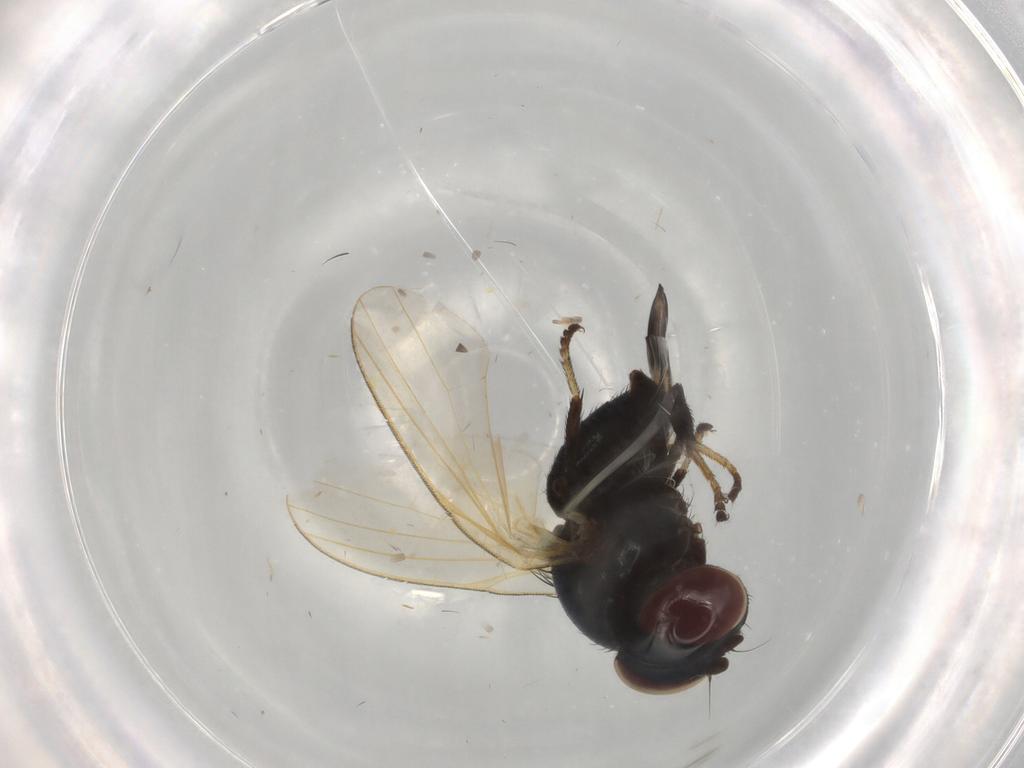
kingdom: Animalia
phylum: Arthropoda
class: Insecta
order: Diptera
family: Lonchaeidae
